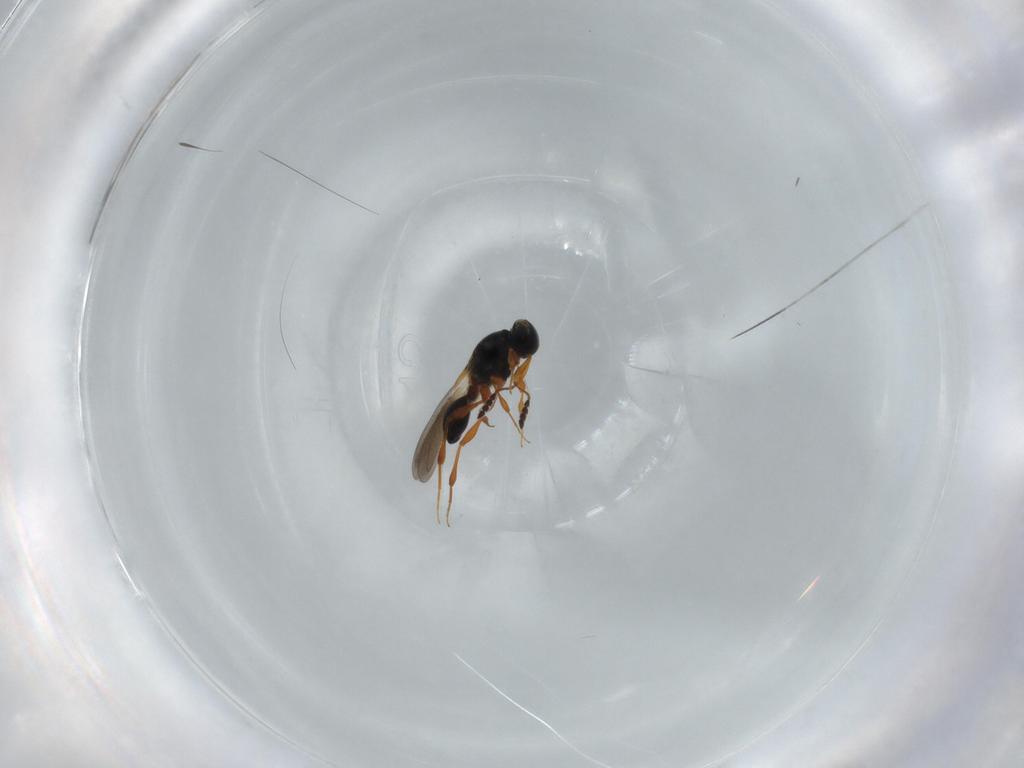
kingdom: Animalia
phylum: Arthropoda
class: Insecta
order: Hymenoptera
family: Platygastridae
